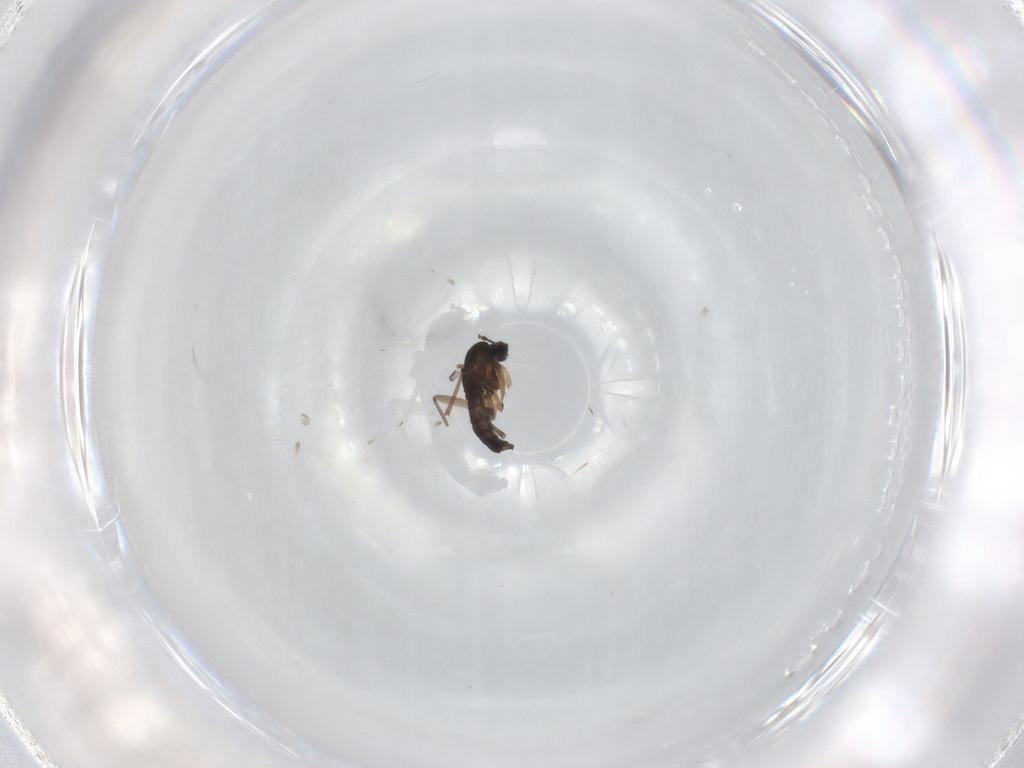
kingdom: Animalia
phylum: Arthropoda
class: Insecta
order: Diptera
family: Sciaridae
